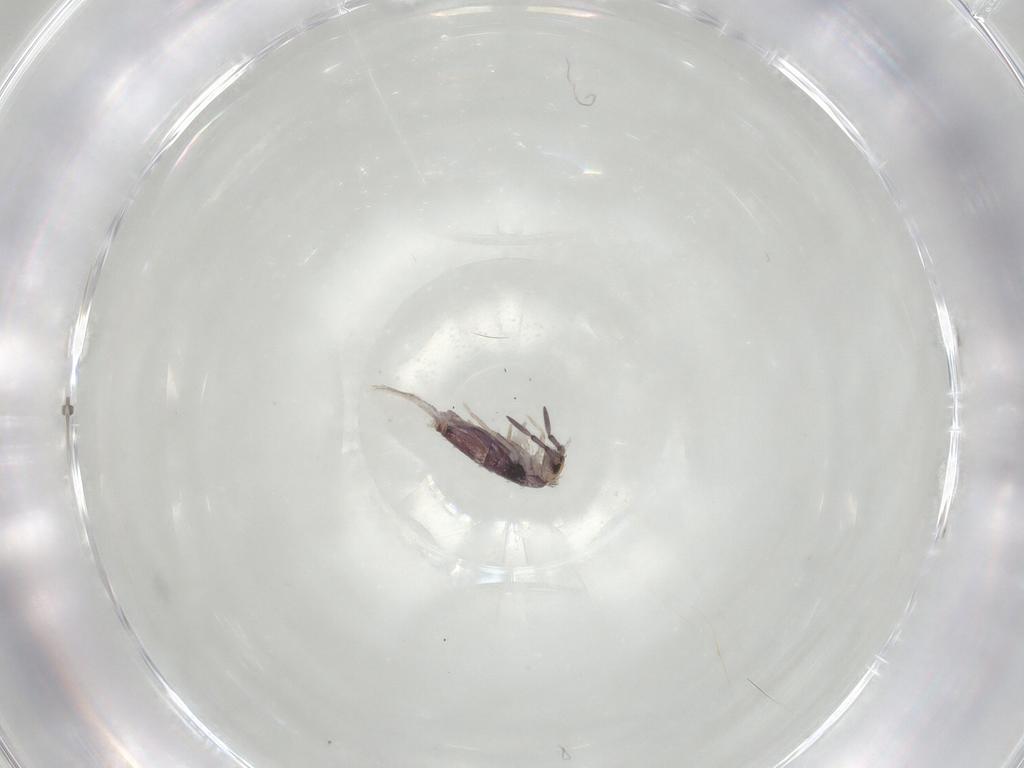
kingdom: Animalia
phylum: Arthropoda
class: Collembola
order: Entomobryomorpha
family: Entomobryidae
